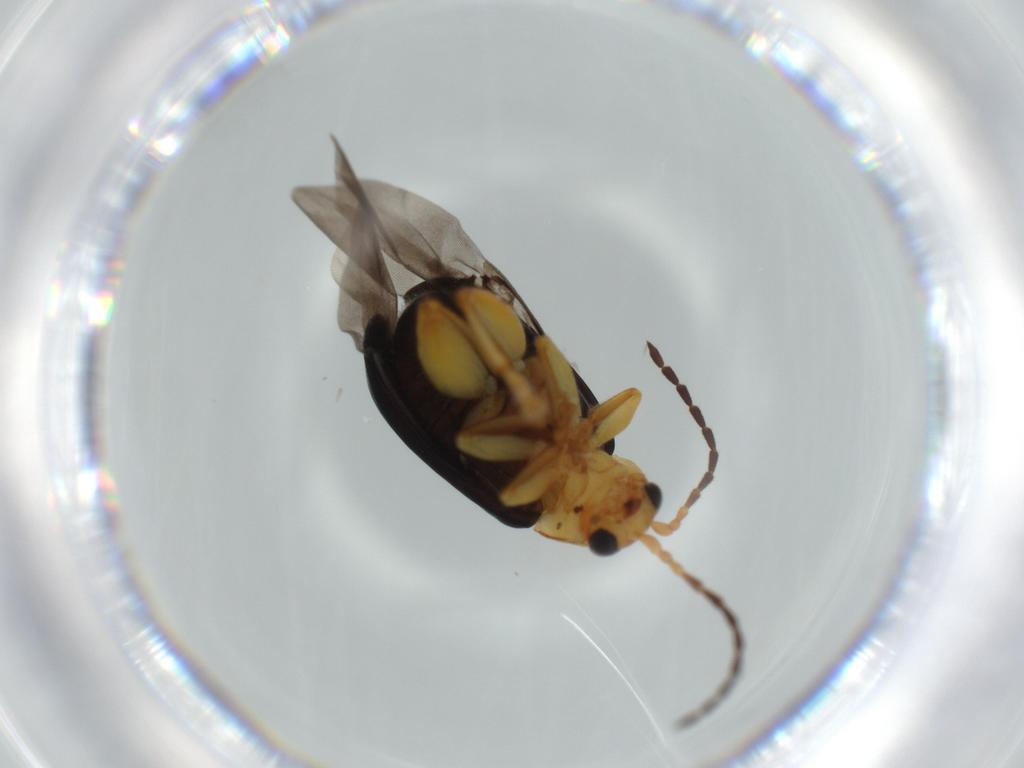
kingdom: Animalia
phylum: Arthropoda
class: Insecta
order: Coleoptera
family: Chrysomelidae
